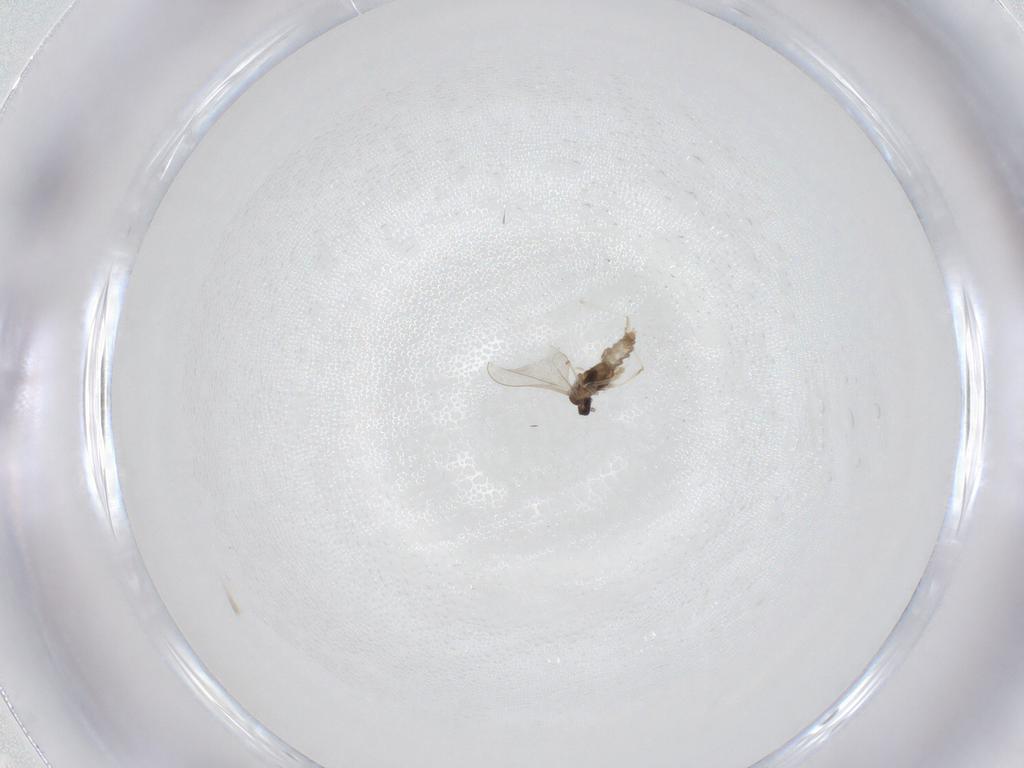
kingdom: Animalia
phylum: Arthropoda
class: Insecta
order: Diptera
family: Cecidomyiidae
